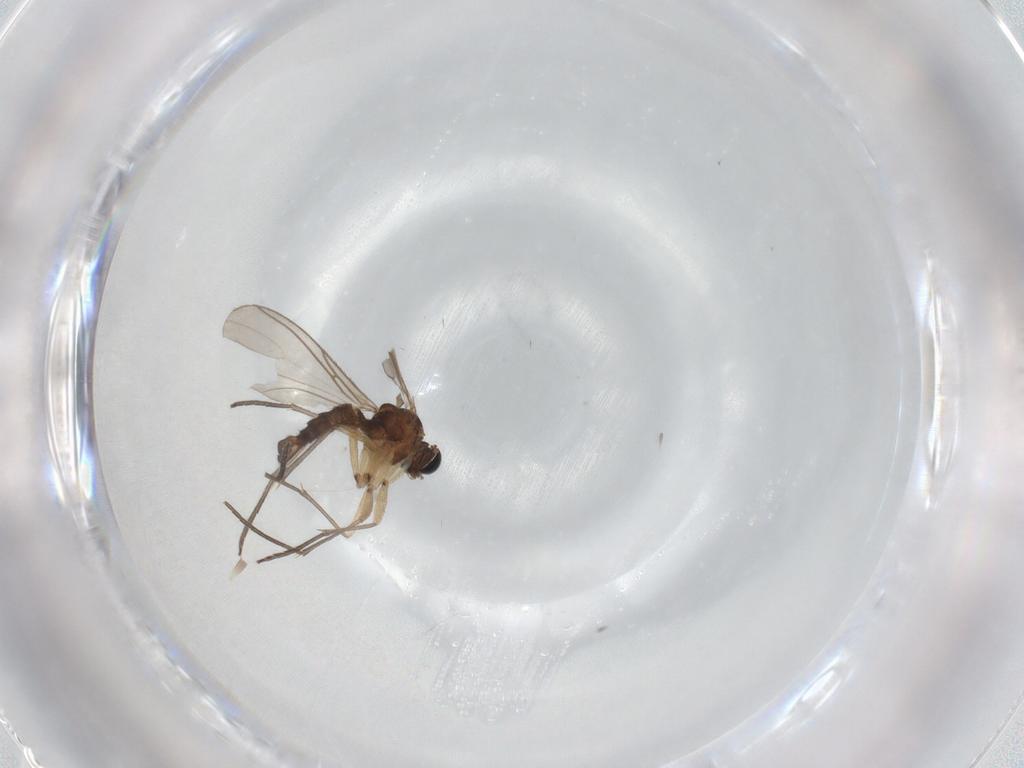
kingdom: Animalia
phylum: Arthropoda
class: Insecta
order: Diptera
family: Sciaridae
